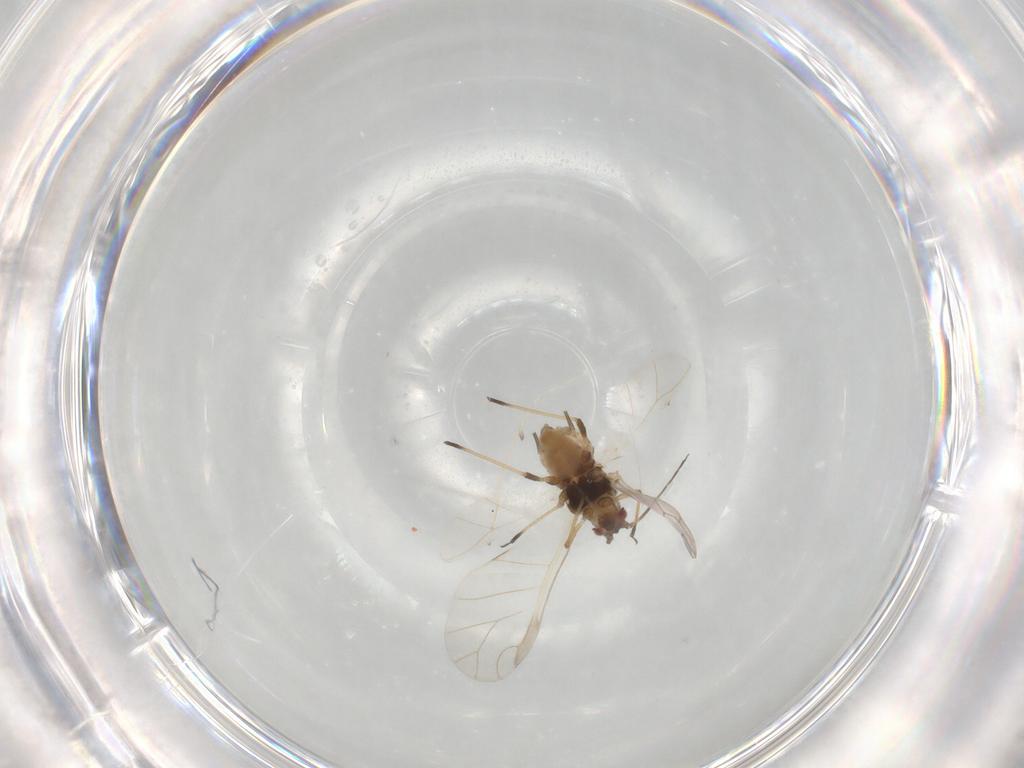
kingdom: Animalia
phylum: Arthropoda
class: Insecta
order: Hemiptera
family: Aphididae
